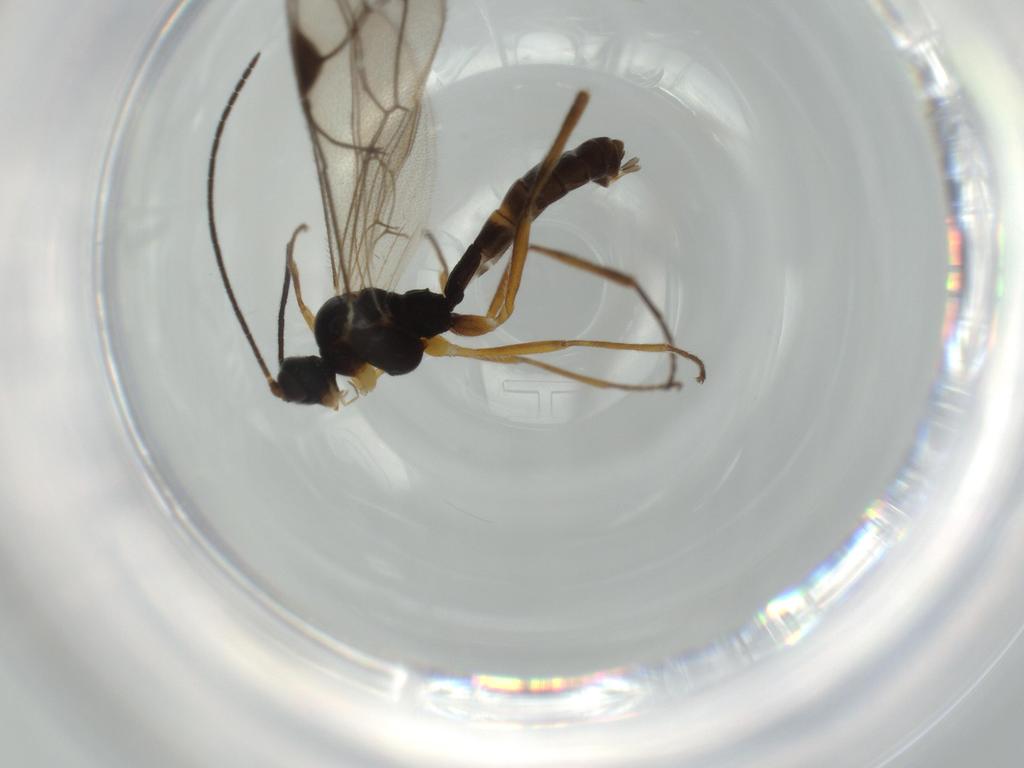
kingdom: Animalia
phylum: Arthropoda
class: Insecta
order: Hymenoptera
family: Ichneumonidae
